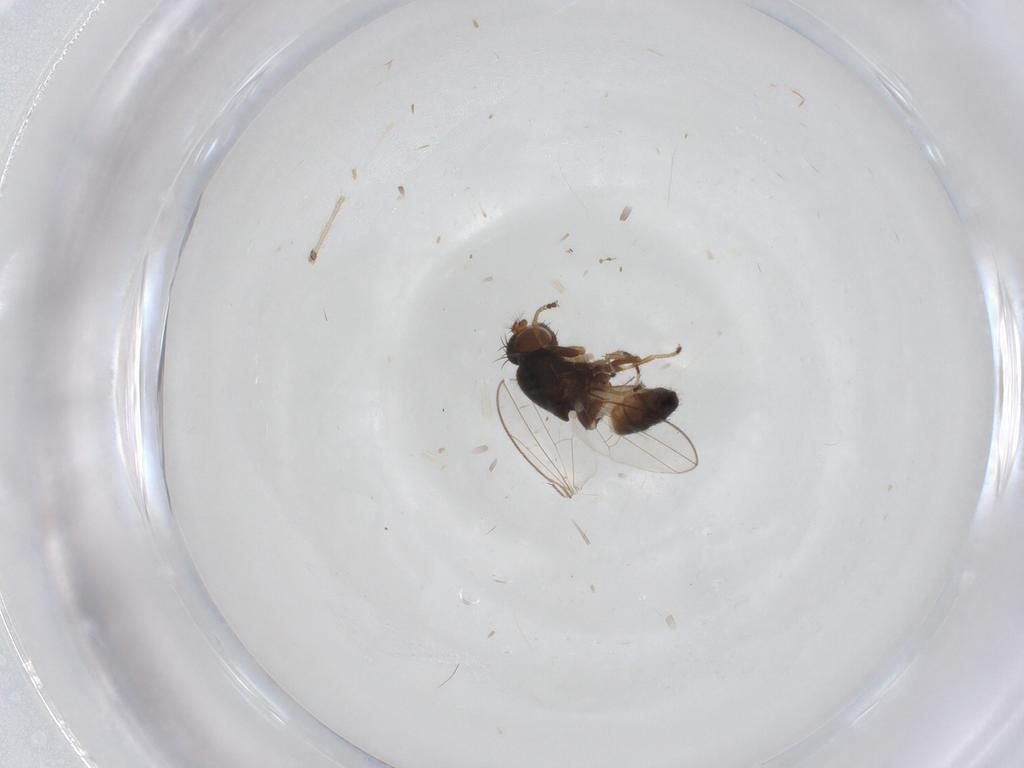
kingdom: Animalia
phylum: Arthropoda
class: Insecta
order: Diptera
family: Ephydridae
